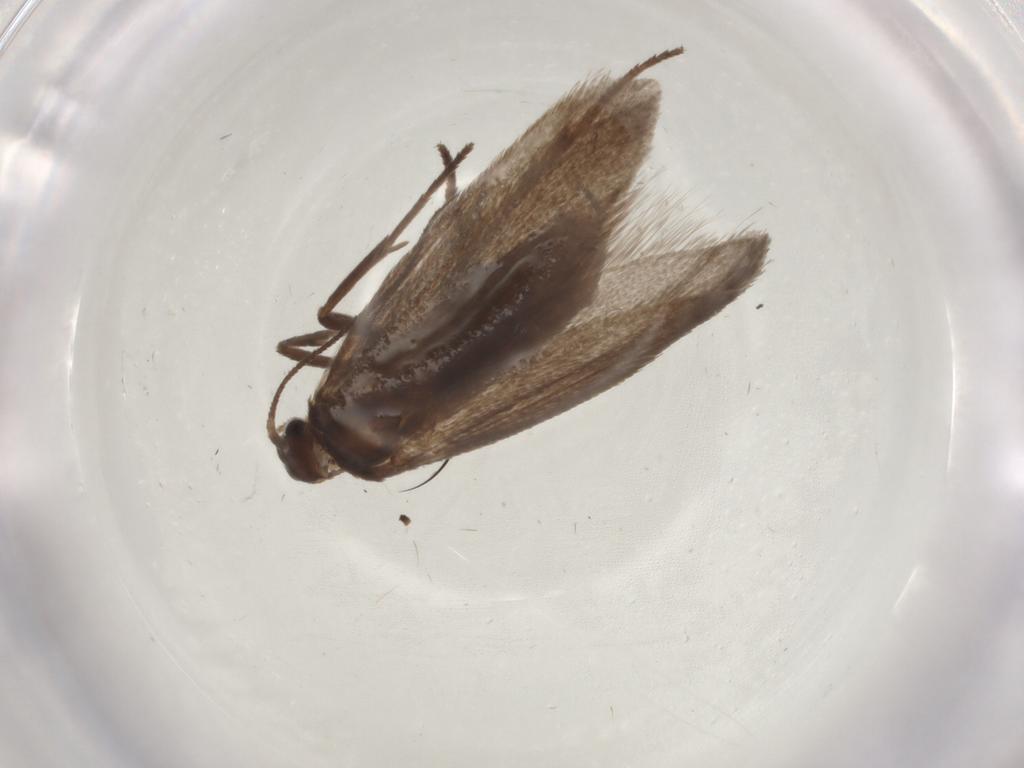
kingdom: Animalia
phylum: Arthropoda
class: Insecta
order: Lepidoptera
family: Limacodidae
